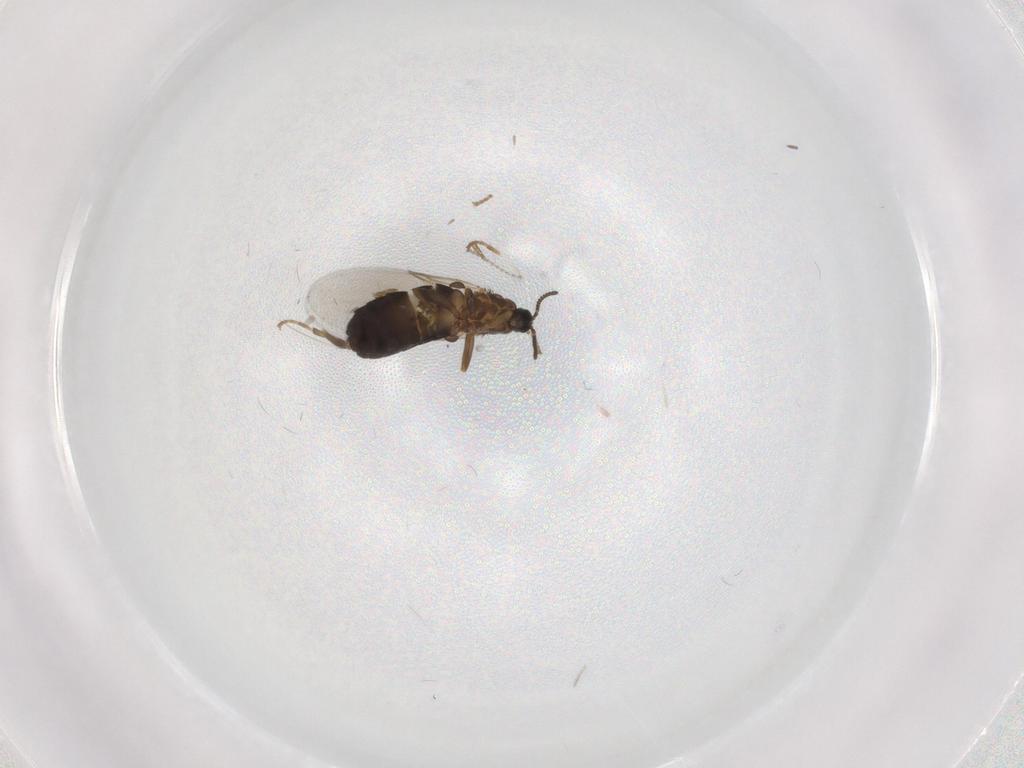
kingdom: Animalia
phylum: Arthropoda
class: Insecta
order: Diptera
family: Scatopsidae
